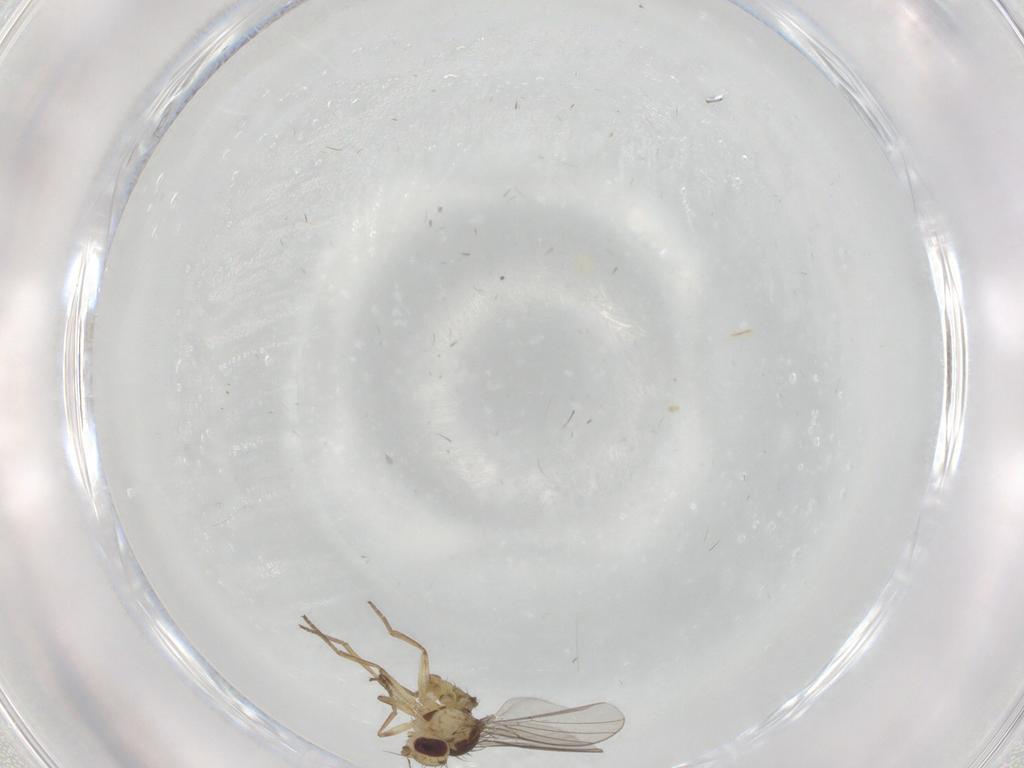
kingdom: Animalia
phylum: Arthropoda
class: Insecta
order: Diptera
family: Agromyzidae
